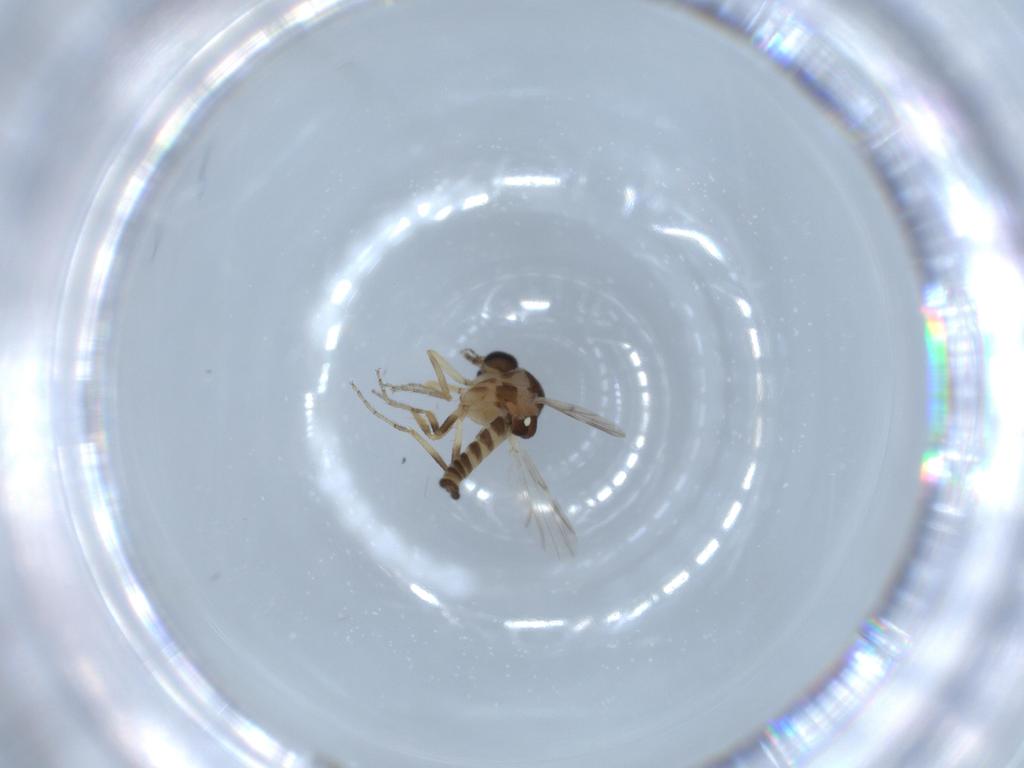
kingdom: Animalia
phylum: Arthropoda
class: Insecta
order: Diptera
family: Ceratopogonidae
